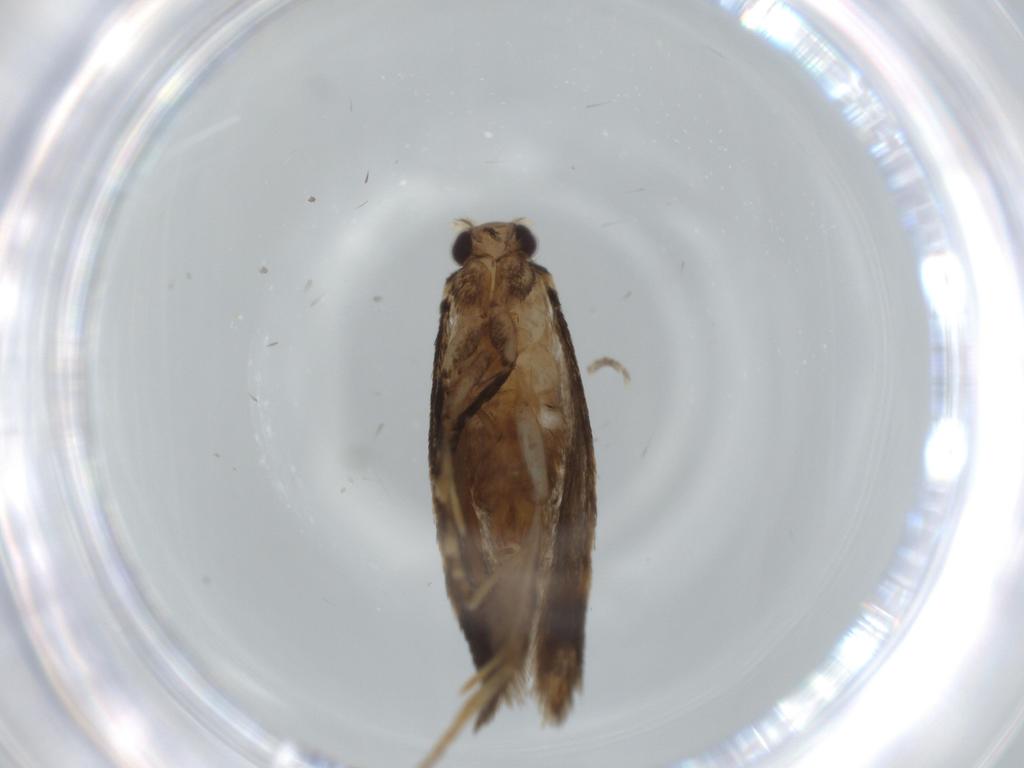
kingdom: Animalia
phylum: Arthropoda
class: Insecta
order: Lepidoptera
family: Tineidae
